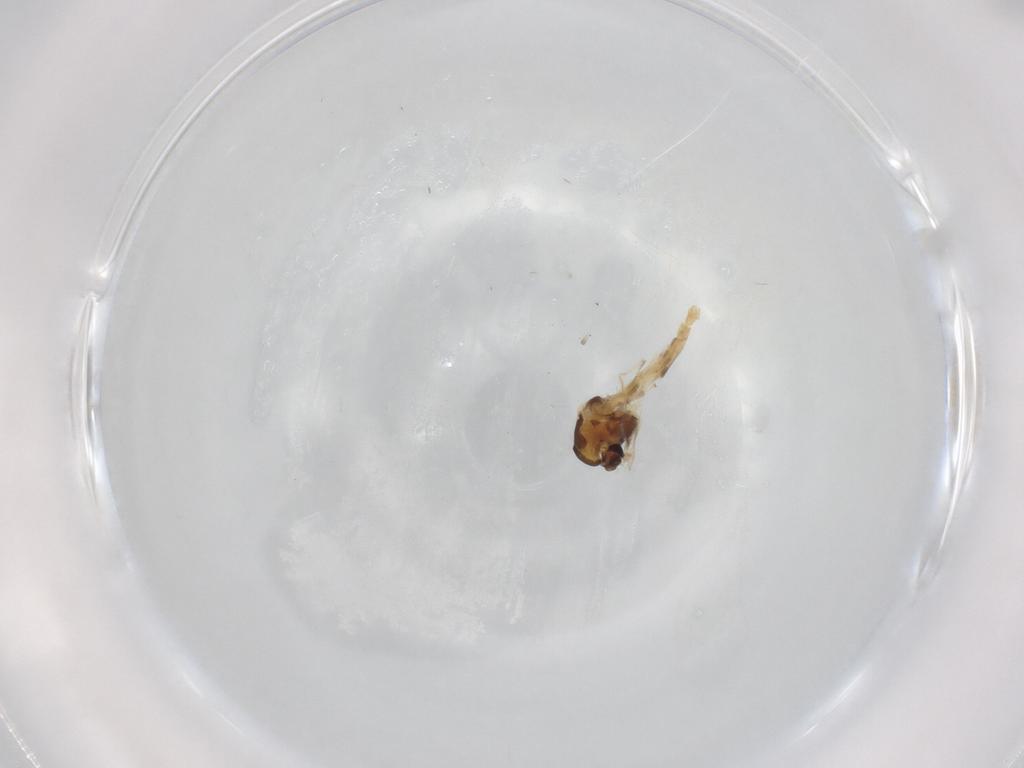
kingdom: Animalia
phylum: Arthropoda
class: Insecta
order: Diptera
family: Chironomidae
